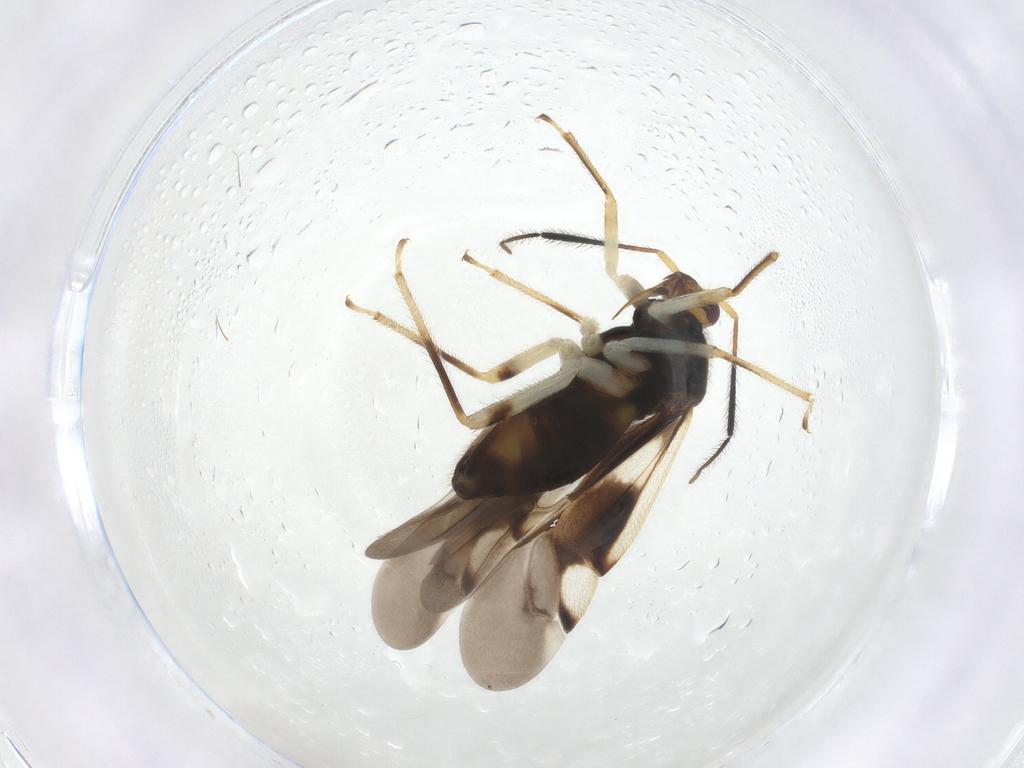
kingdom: Animalia
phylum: Arthropoda
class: Insecta
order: Hemiptera
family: Miridae
